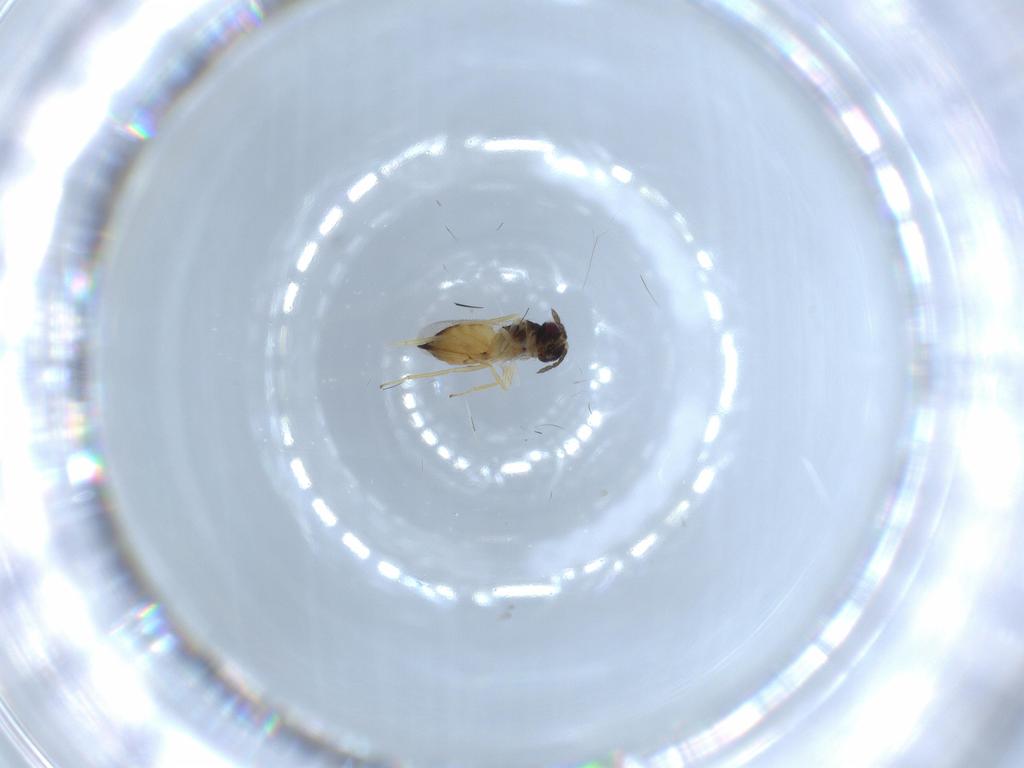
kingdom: Animalia
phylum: Arthropoda
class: Insecta
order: Hymenoptera
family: Eulophidae
